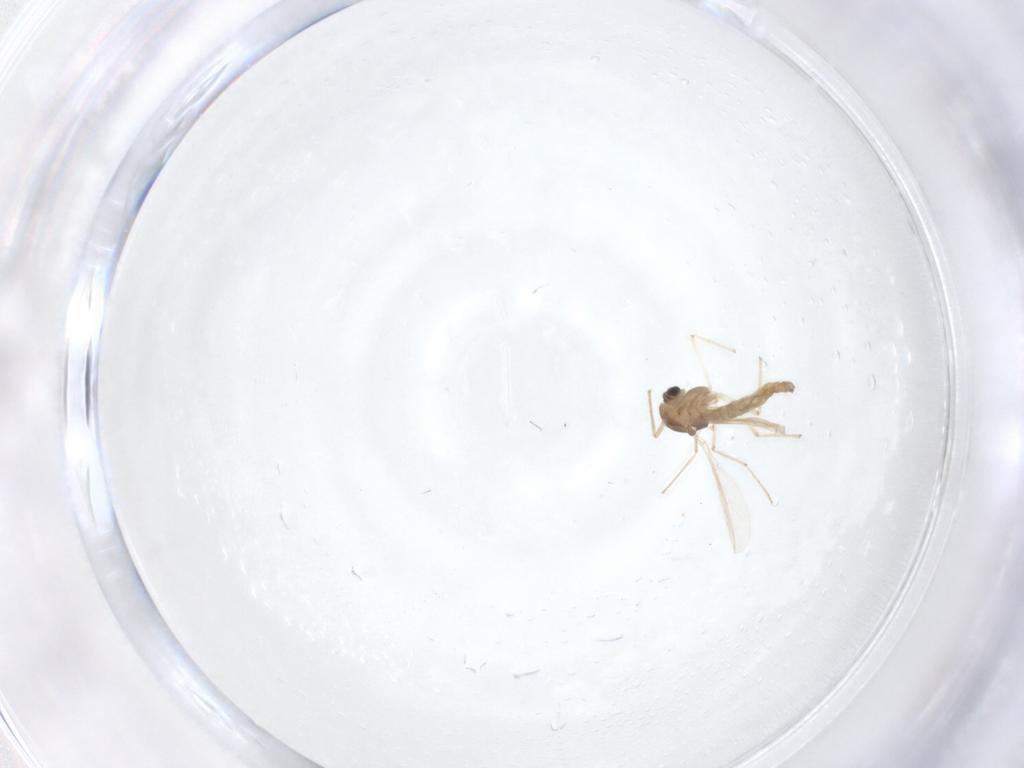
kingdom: Animalia
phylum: Arthropoda
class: Insecta
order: Diptera
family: Chironomidae
